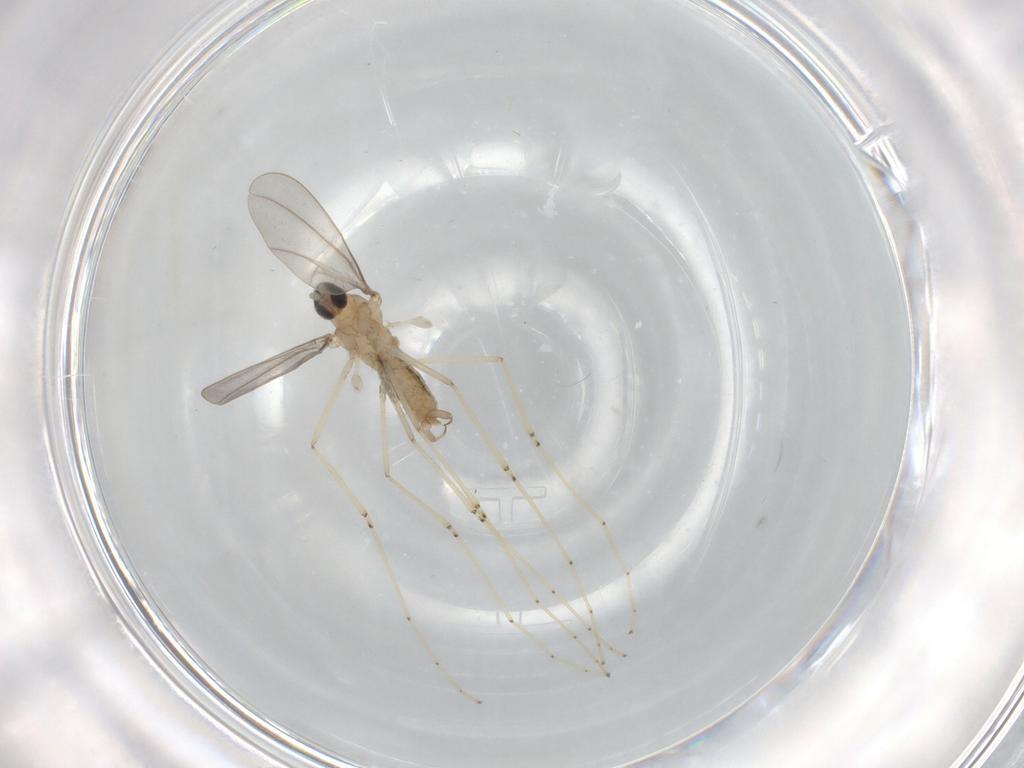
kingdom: Animalia
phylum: Arthropoda
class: Insecta
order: Diptera
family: Cecidomyiidae
